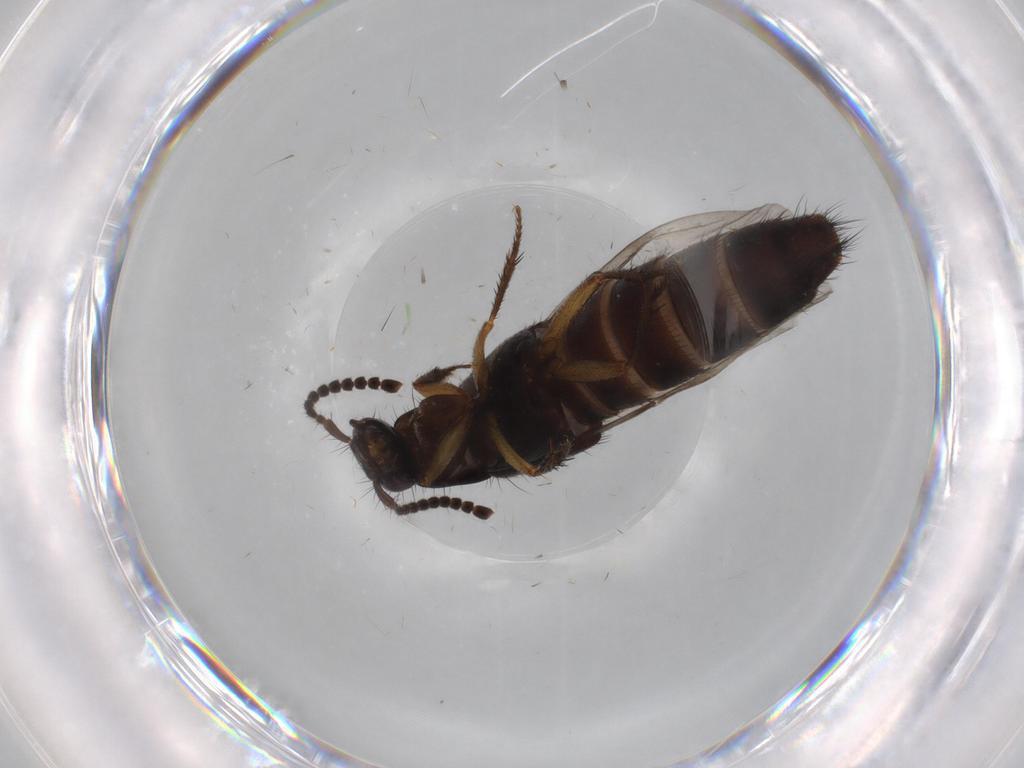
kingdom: Animalia
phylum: Arthropoda
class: Insecta
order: Coleoptera
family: Staphylinidae
